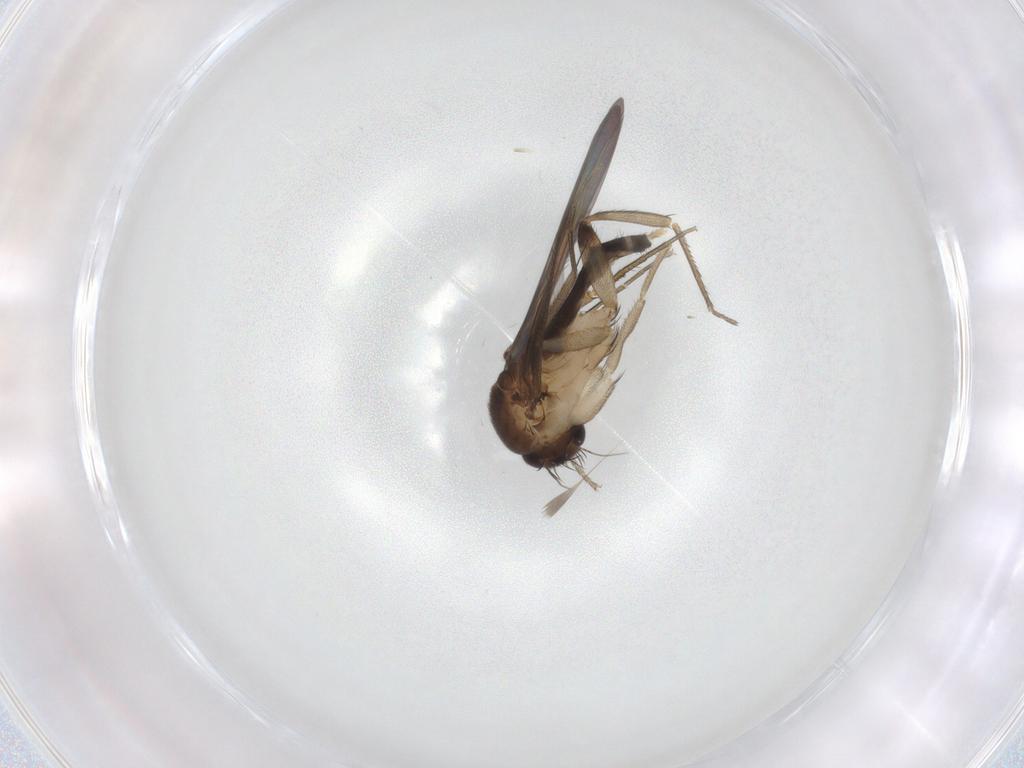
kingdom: Animalia
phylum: Arthropoda
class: Insecta
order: Diptera
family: Phoridae
